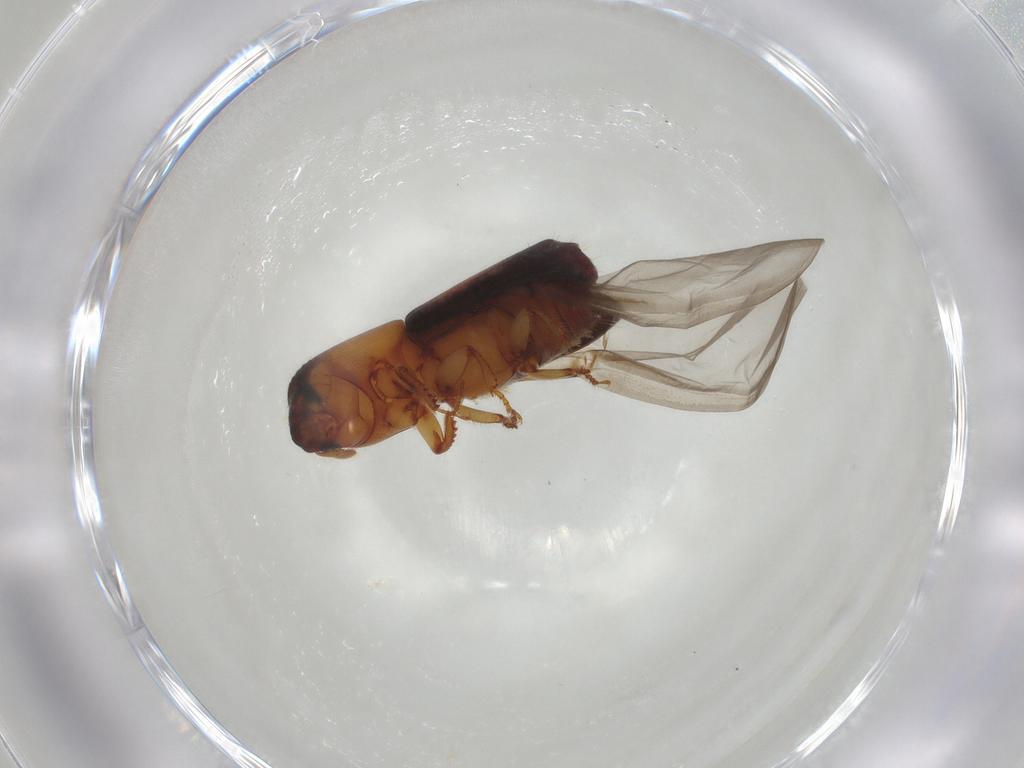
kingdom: Animalia
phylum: Arthropoda
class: Insecta
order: Coleoptera
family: Curculionidae
